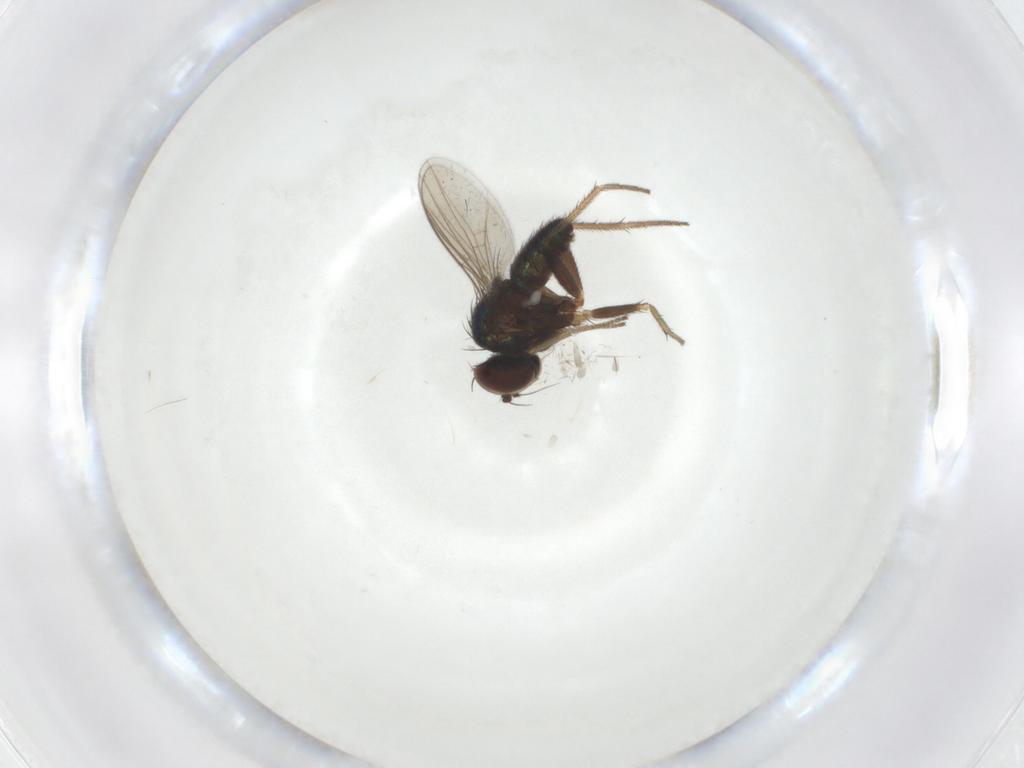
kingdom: Animalia
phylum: Arthropoda
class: Insecta
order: Diptera
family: Dolichopodidae
